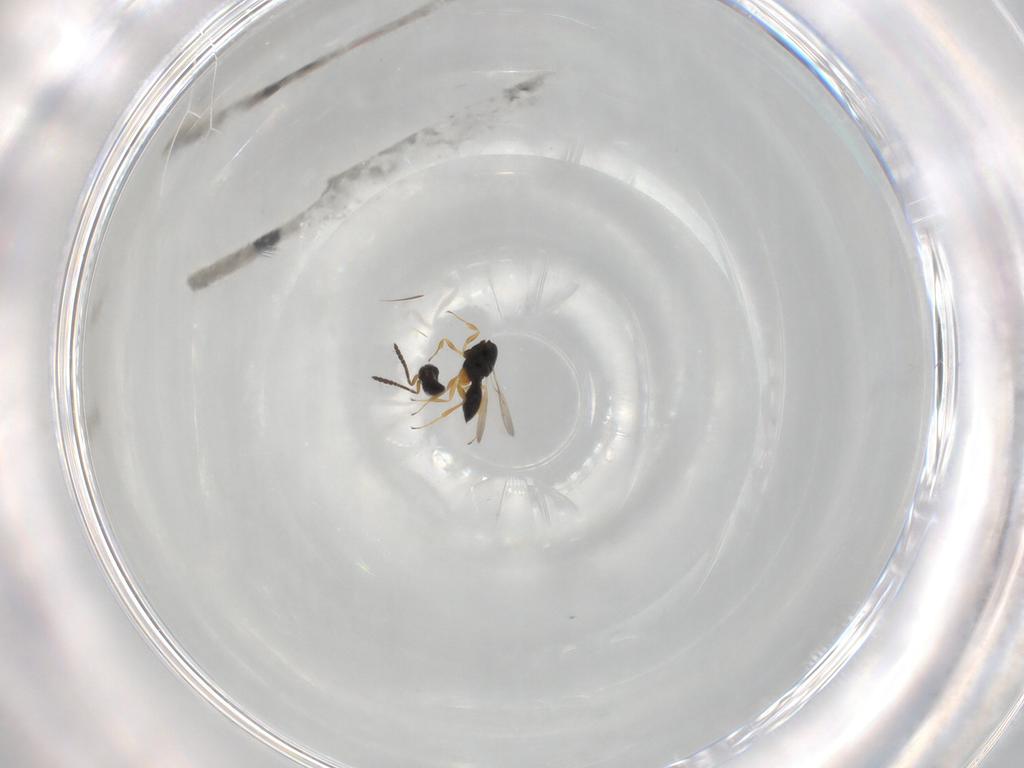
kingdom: Animalia
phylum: Arthropoda
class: Insecta
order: Hymenoptera
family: Scelionidae
